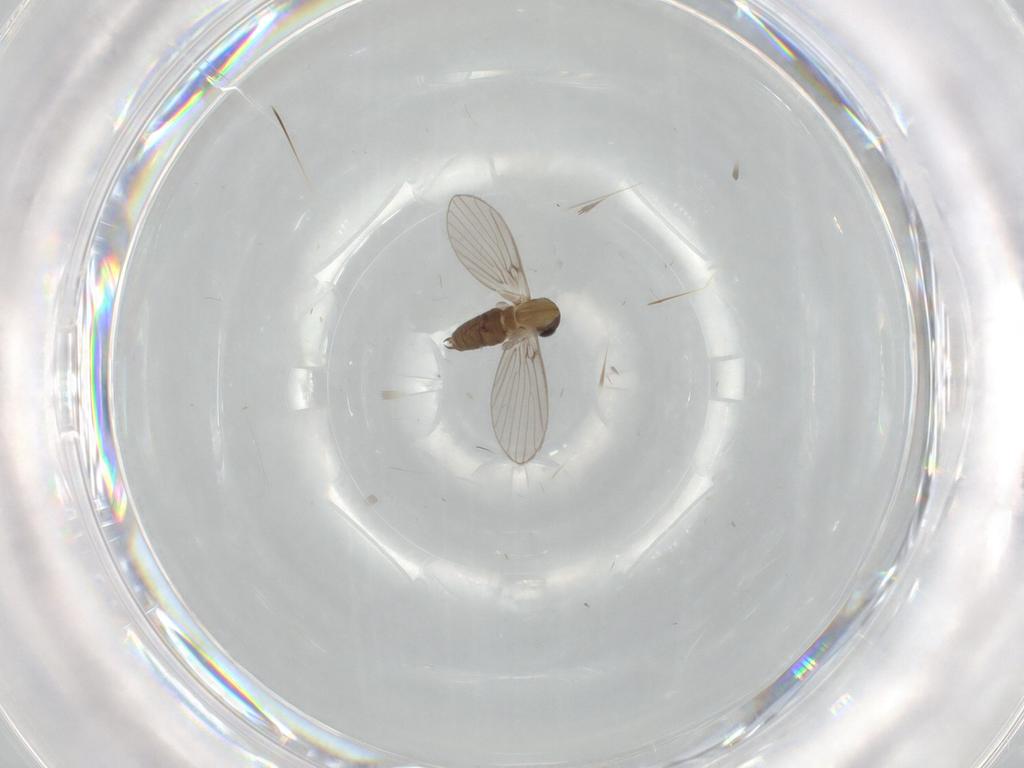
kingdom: Animalia
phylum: Arthropoda
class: Insecta
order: Diptera
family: Psychodidae
